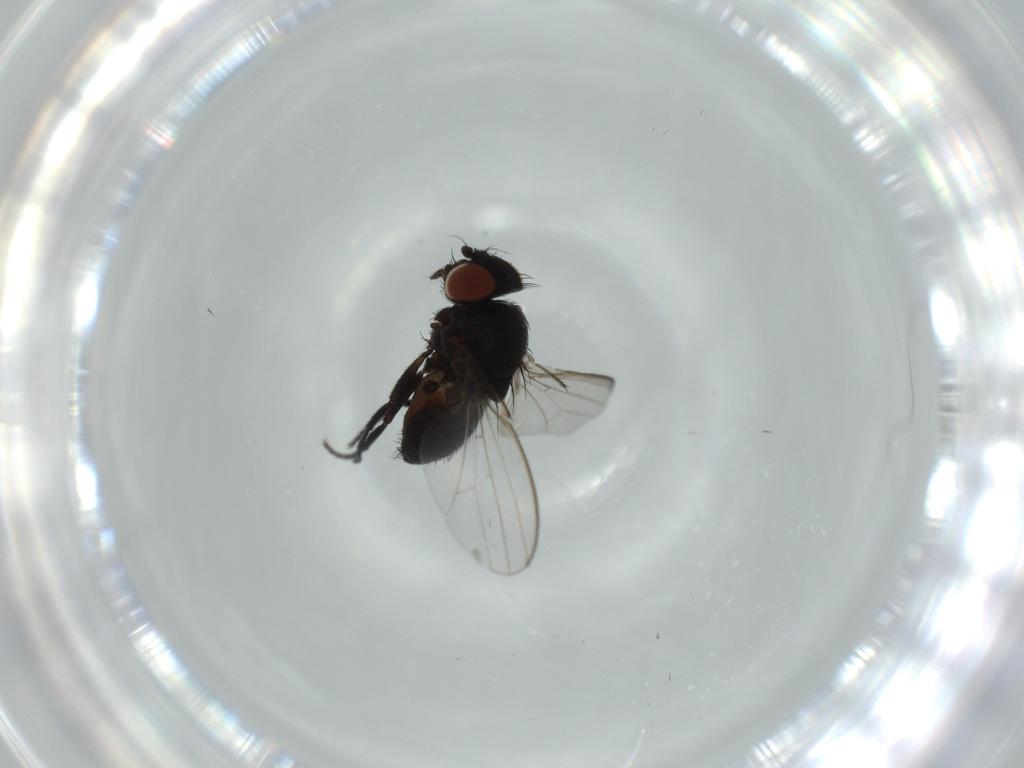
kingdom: Animalia
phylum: Arthropoda
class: Insecta
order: Diptera
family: Milichiidae
